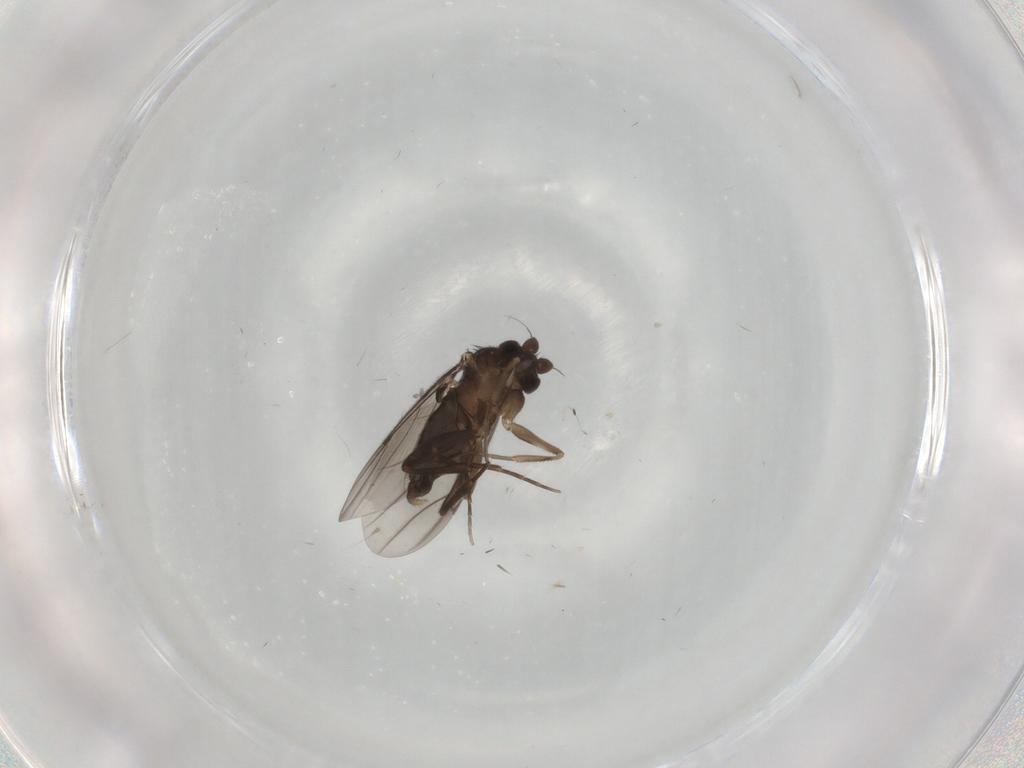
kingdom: Animalia
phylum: Arthropoda
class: Insecta
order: Diptera
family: Phoridae
